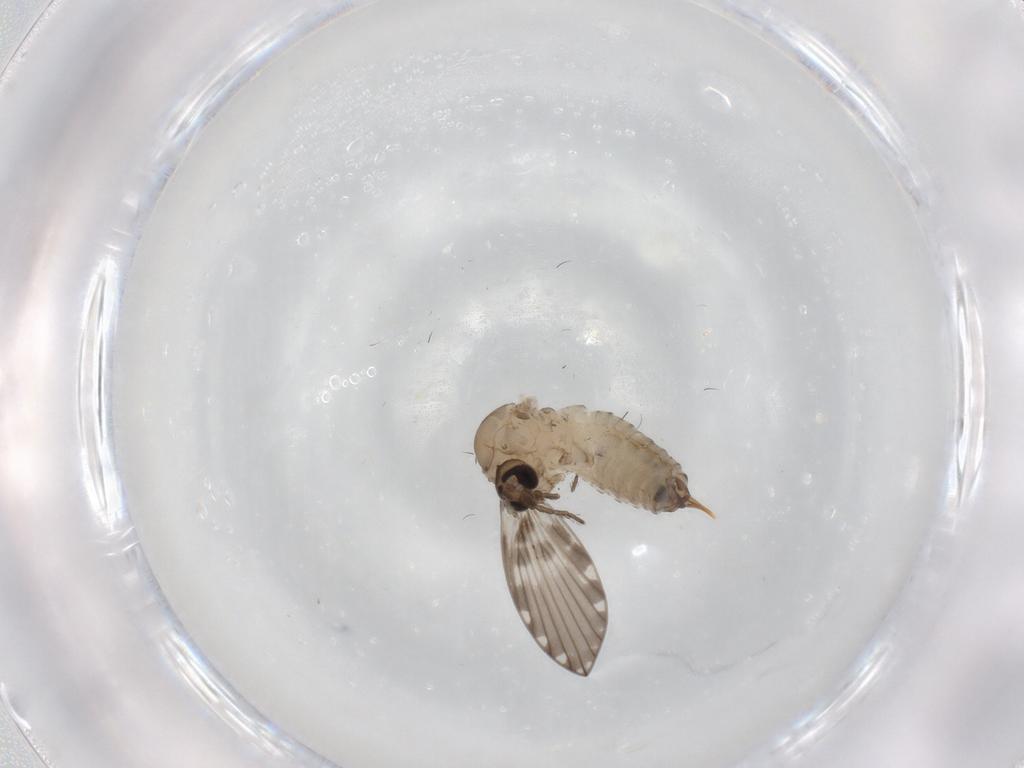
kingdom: Animalia
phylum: Arthropoda
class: Insecta
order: Diptera
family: Psychodidae
